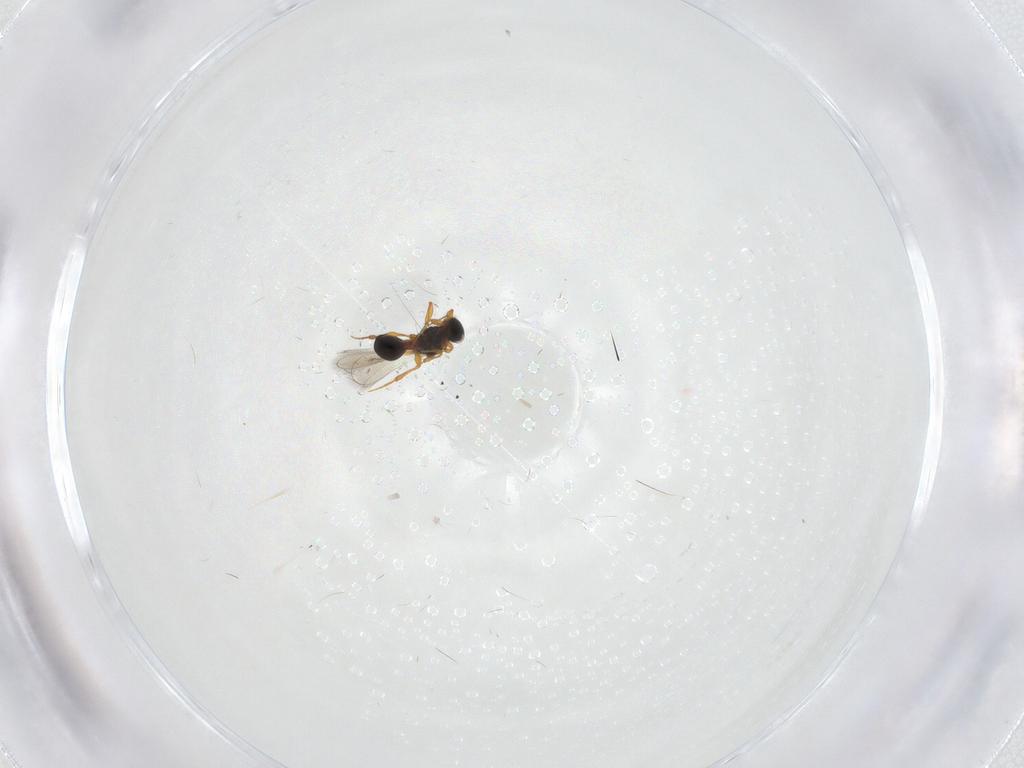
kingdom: Animalia
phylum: Arthropoda
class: Insecta
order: Hymenoptera
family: Platygastridae
